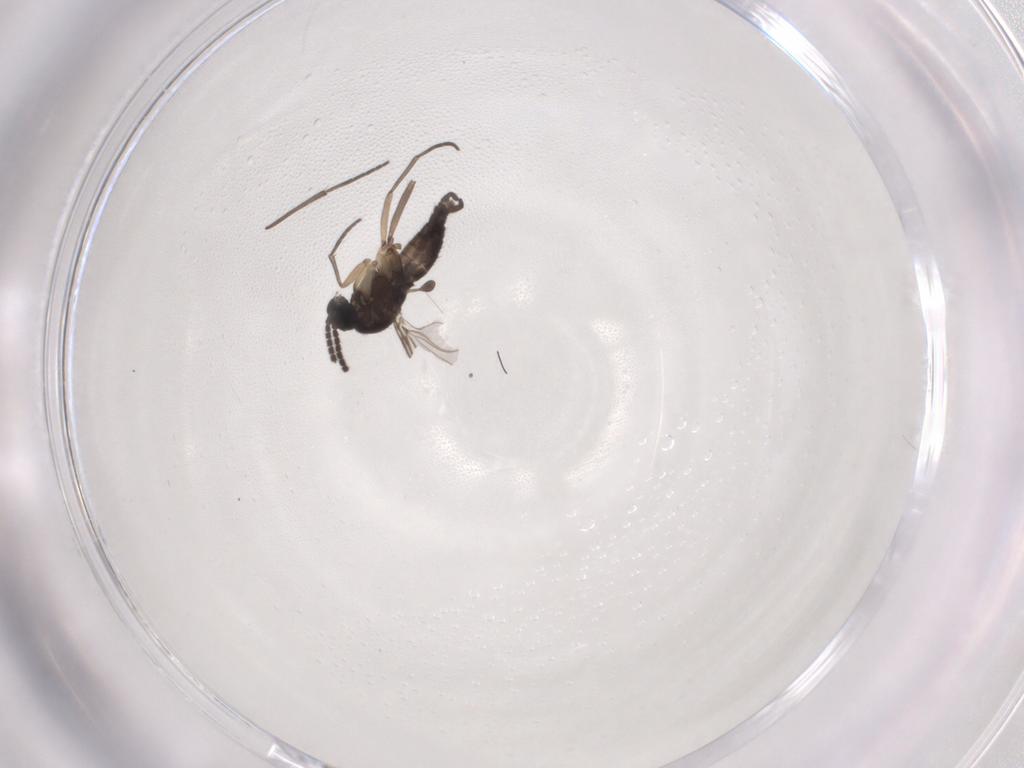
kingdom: Animalia
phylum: Arthropoda
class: Insecta
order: Diptera
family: Sciaridae
